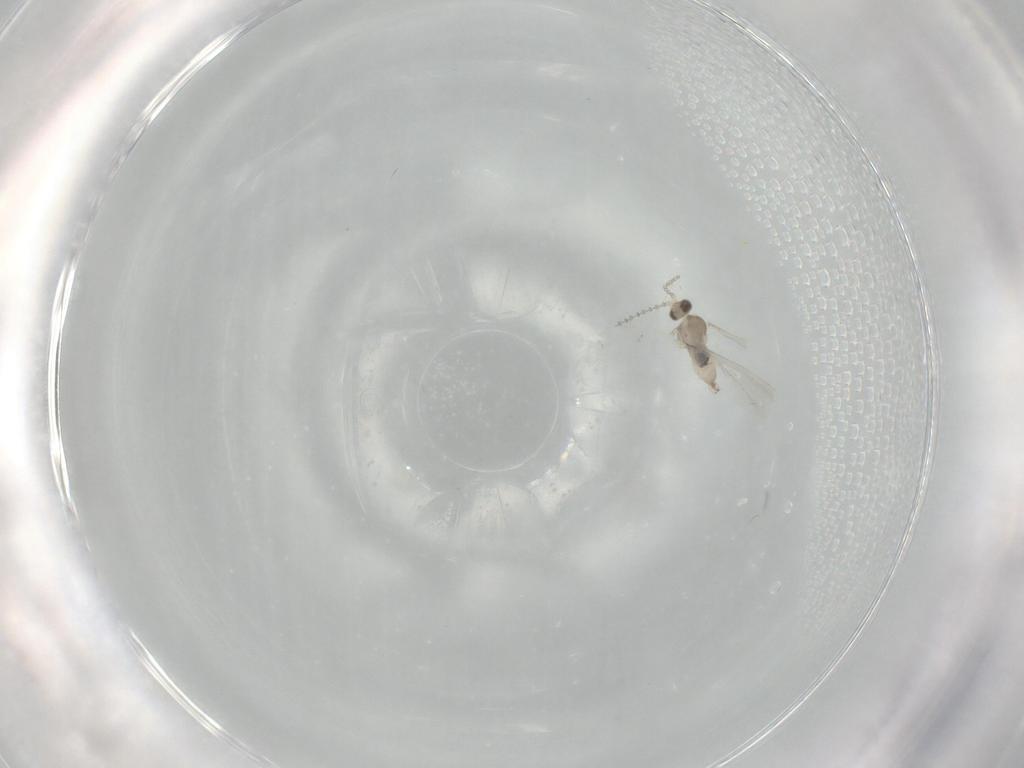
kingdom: Animalia
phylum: Arthropoda
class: Insecta
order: Diptera
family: Cecidomyiidae
